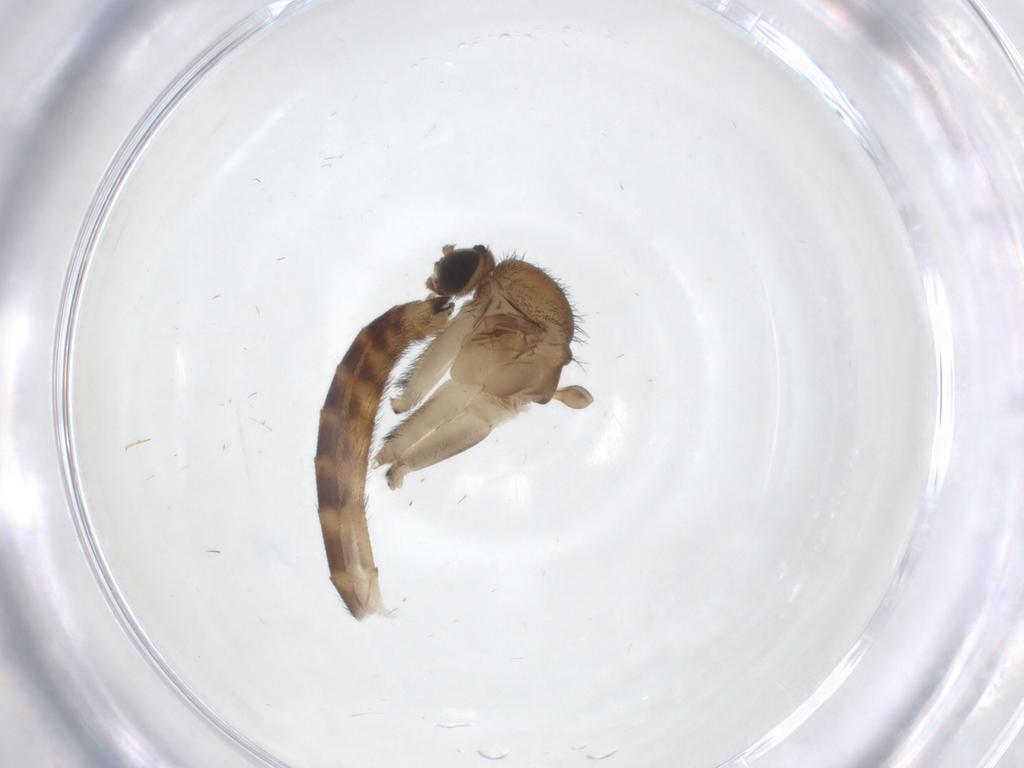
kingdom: Animalia
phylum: Arthropoda
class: Insecta
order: Diptera
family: Keroplatidae
